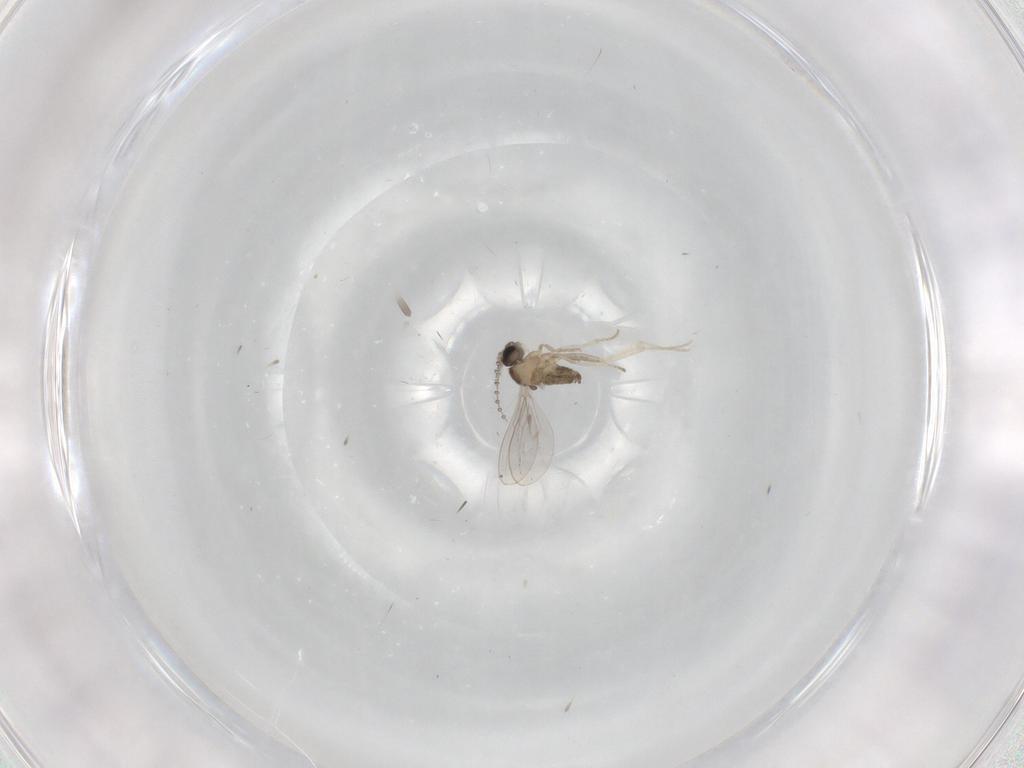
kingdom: Animalia
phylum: Arthropoda
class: Insecta
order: Diptera
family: Cecidomyiidae
